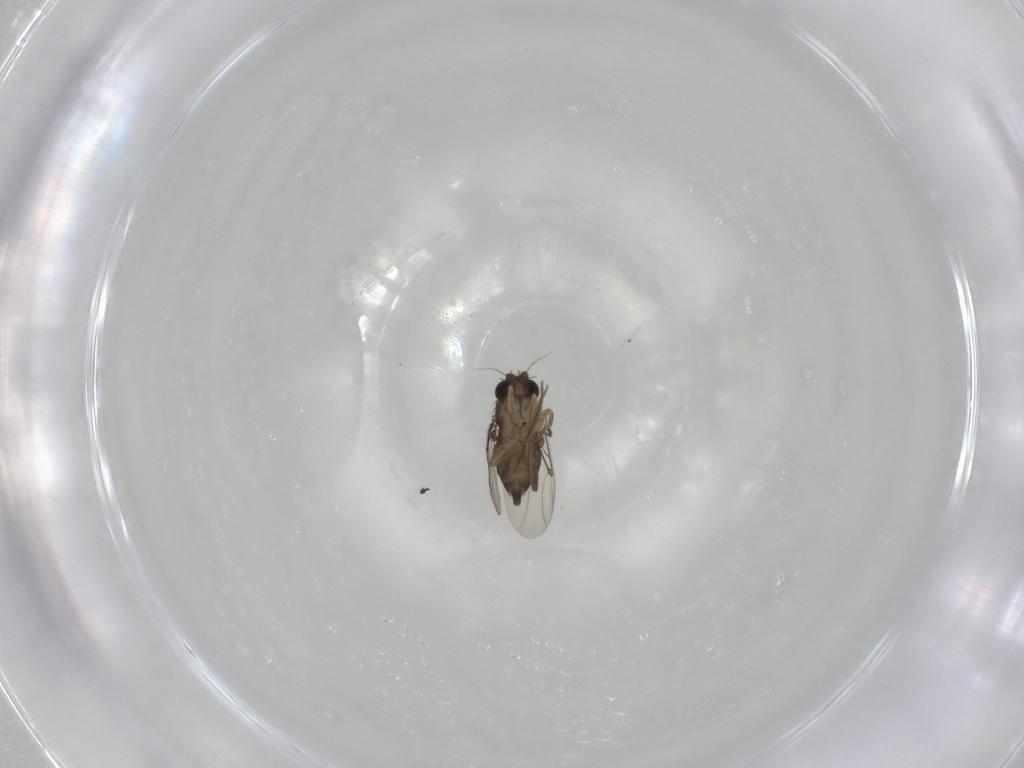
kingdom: Animalia
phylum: Arthropoda
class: Insecta
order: Diptera
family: Phoridae
